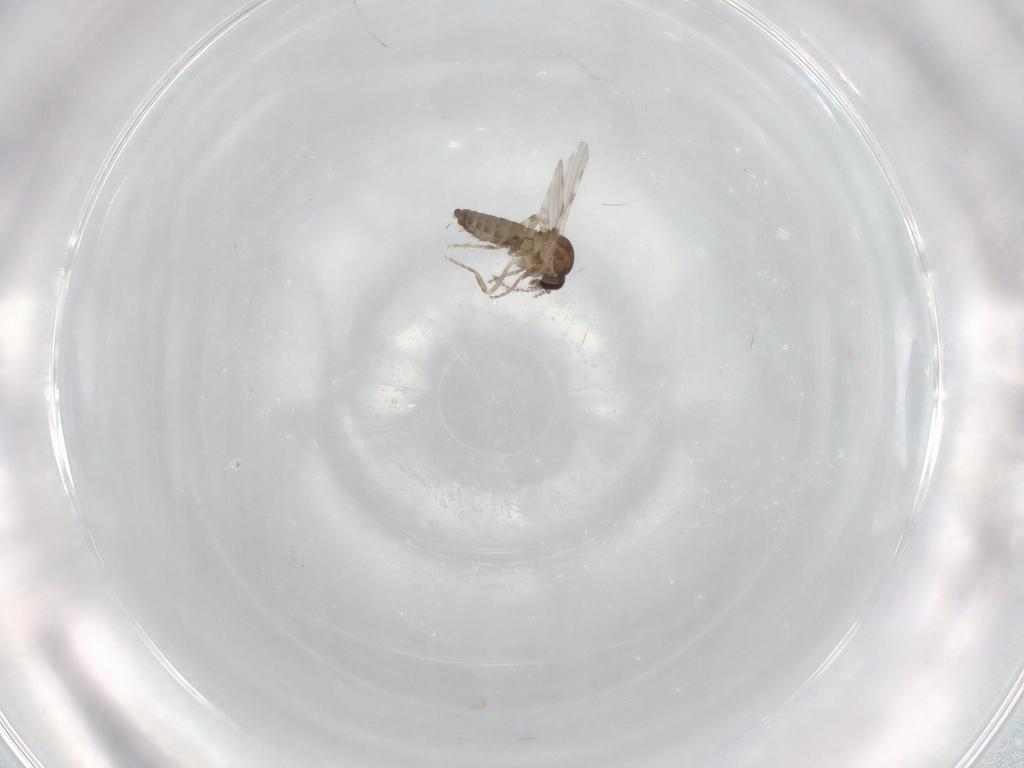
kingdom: Animalia
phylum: Arthropoda
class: Insecta
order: Diptera
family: Ceratopogonidae
